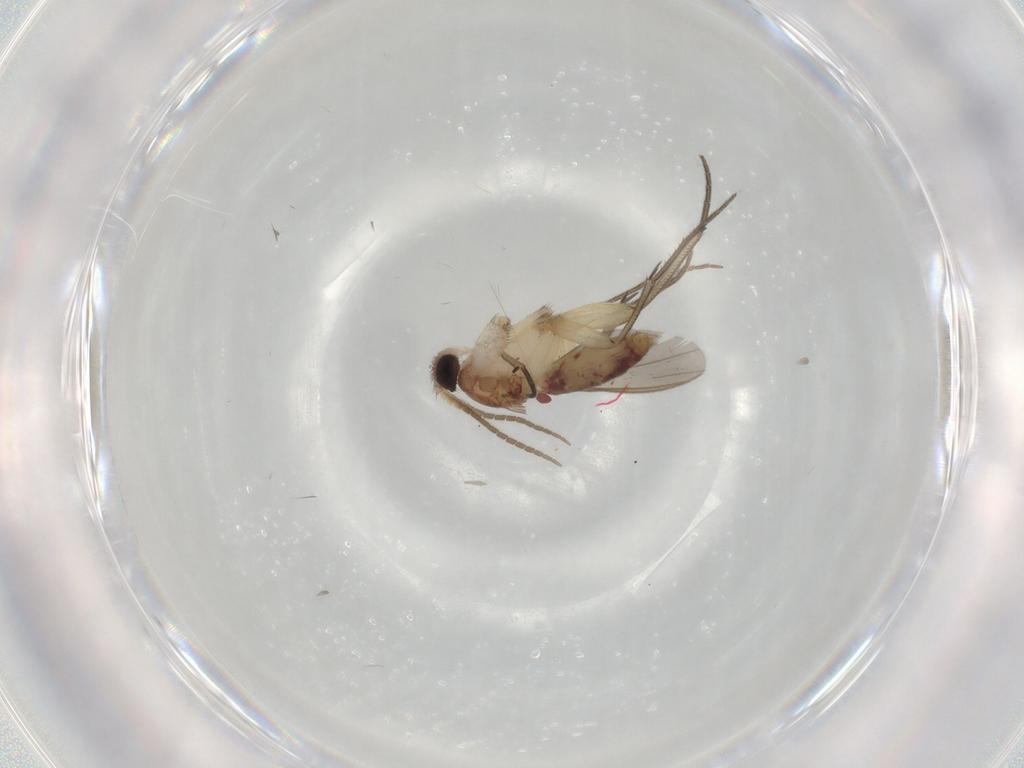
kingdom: Animalia
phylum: Arthropoda
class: Insecta
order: Diptera
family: Mycetophilidae
